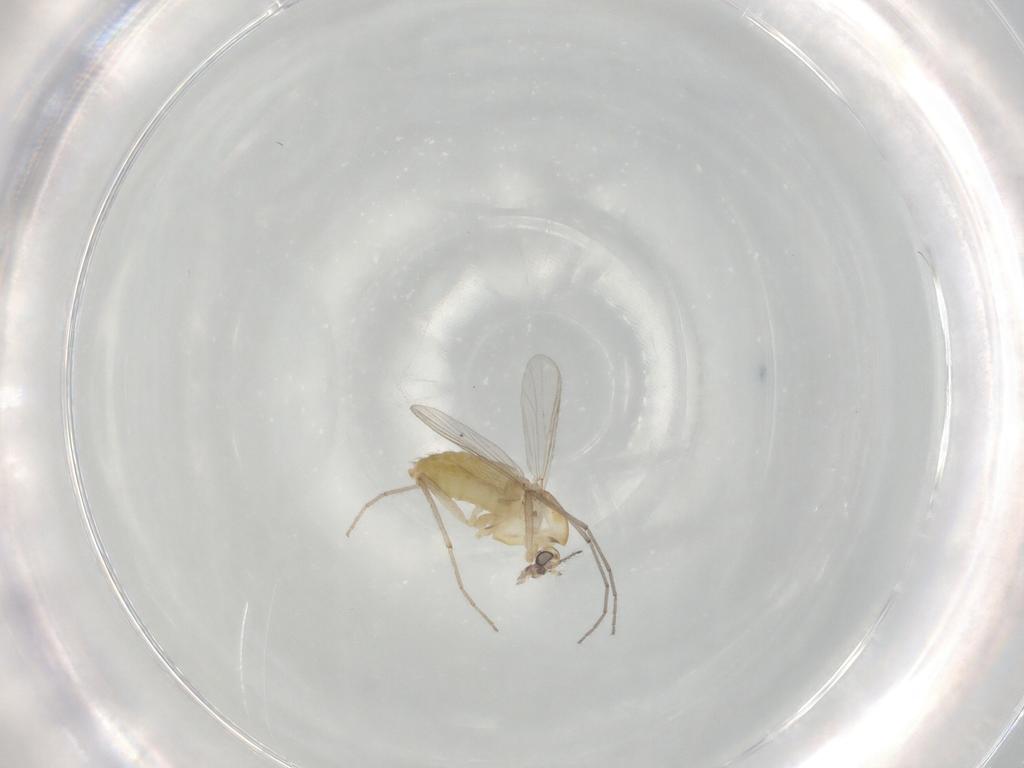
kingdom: Animalia
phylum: Arthropoda
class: Insecta
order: Diptera
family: Chironomidae
